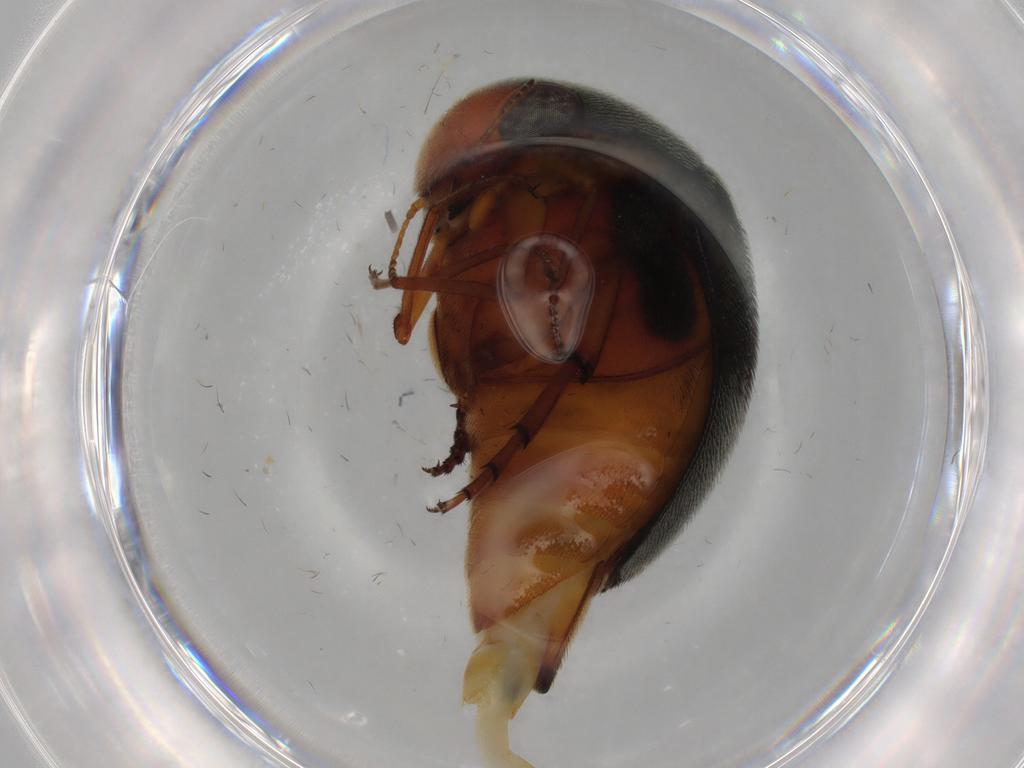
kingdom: Animalia
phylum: Arthropoda
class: Insecta
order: Coleoptera
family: Mordellidae
